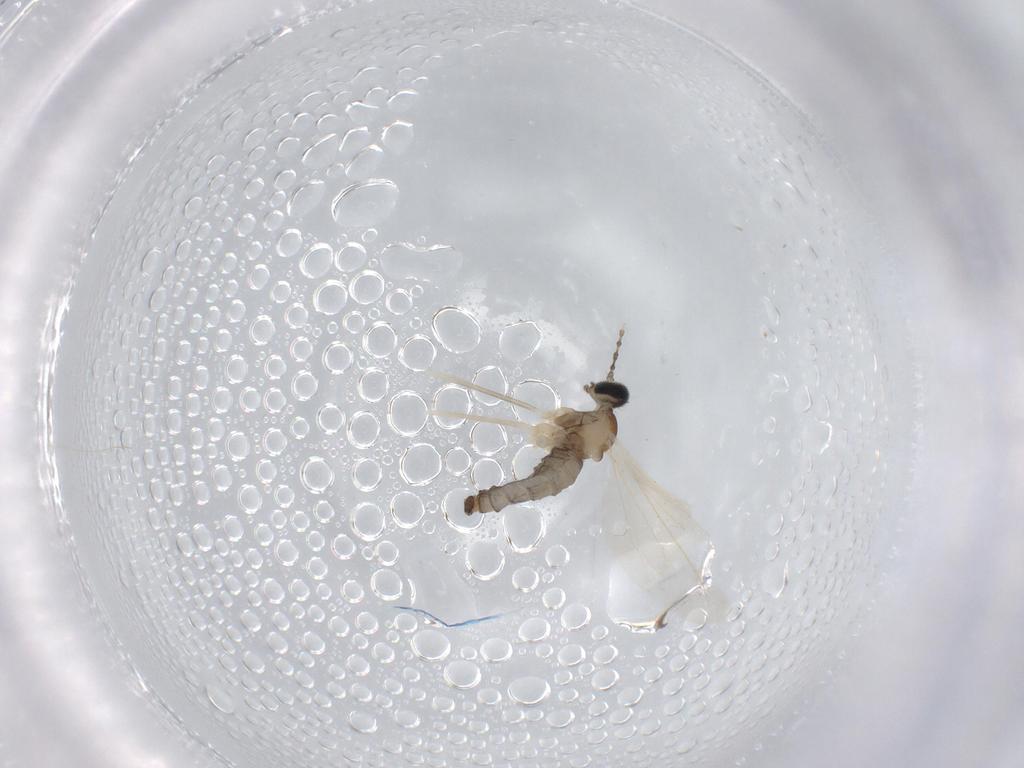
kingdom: Animalia
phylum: Arthropoda
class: Insecta
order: Diptera
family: Cecidomyiidae
